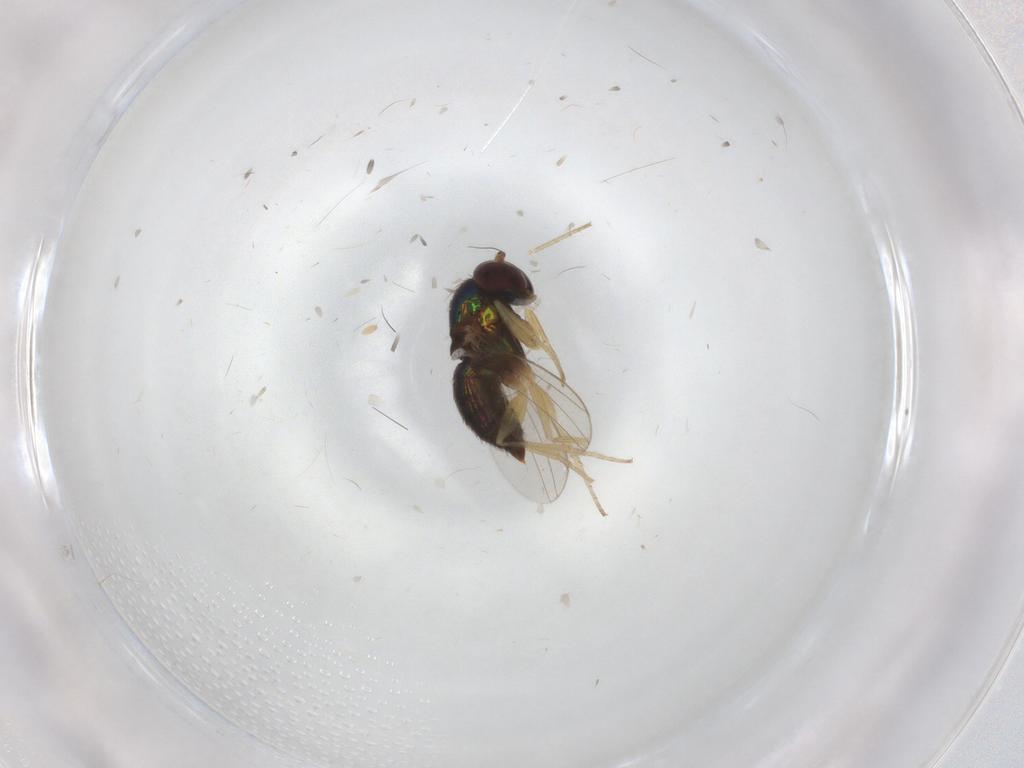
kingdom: Animalia
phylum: Arthropoda
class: Insecta
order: Diptera
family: Dolichopodidae
